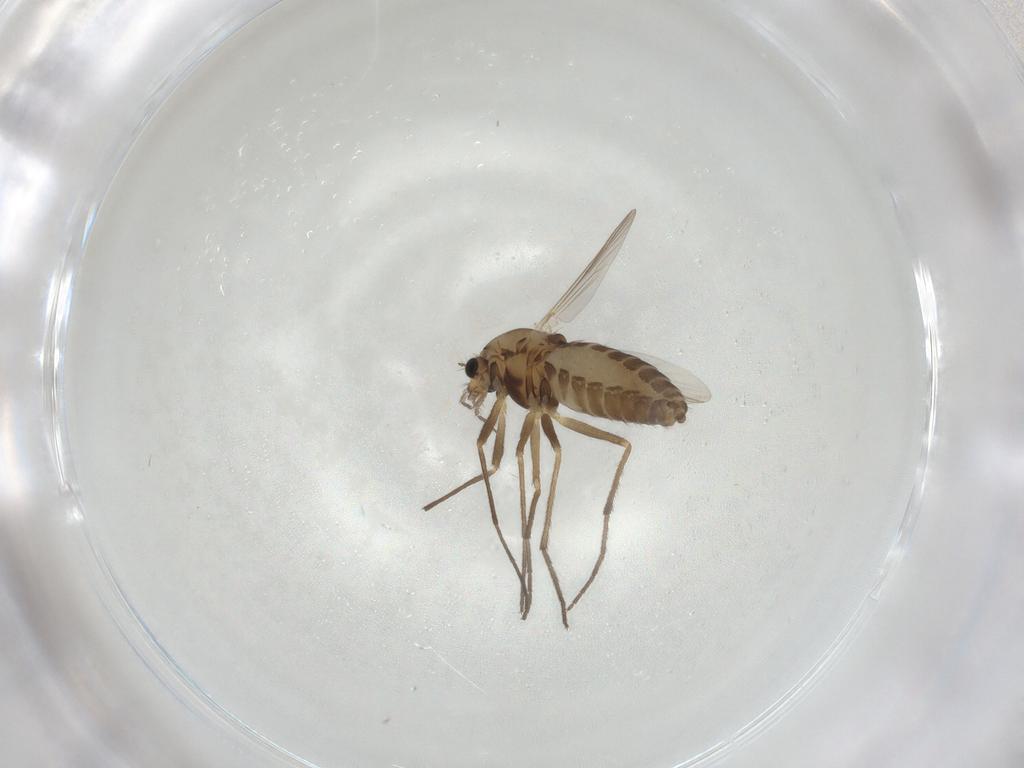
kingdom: Animalia
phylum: Arthropoda
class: Insecta
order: Diptera
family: Chironomidae
